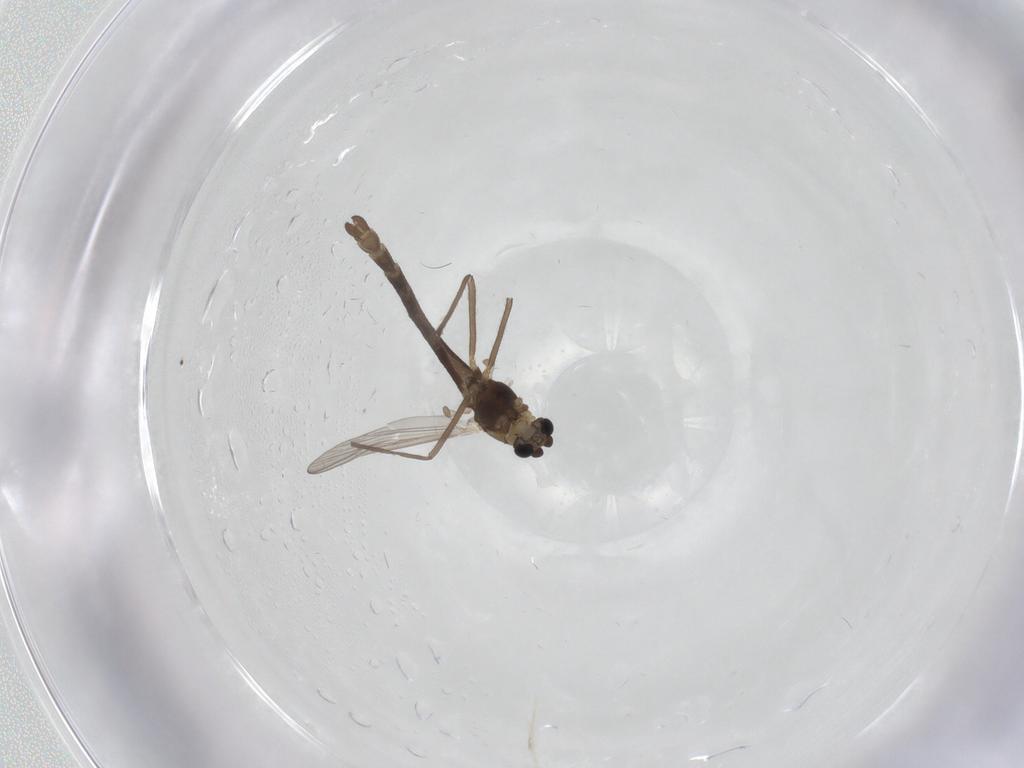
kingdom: Animalia
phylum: Arthropoda
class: Insecta
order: Diptera
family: Chironomidae
